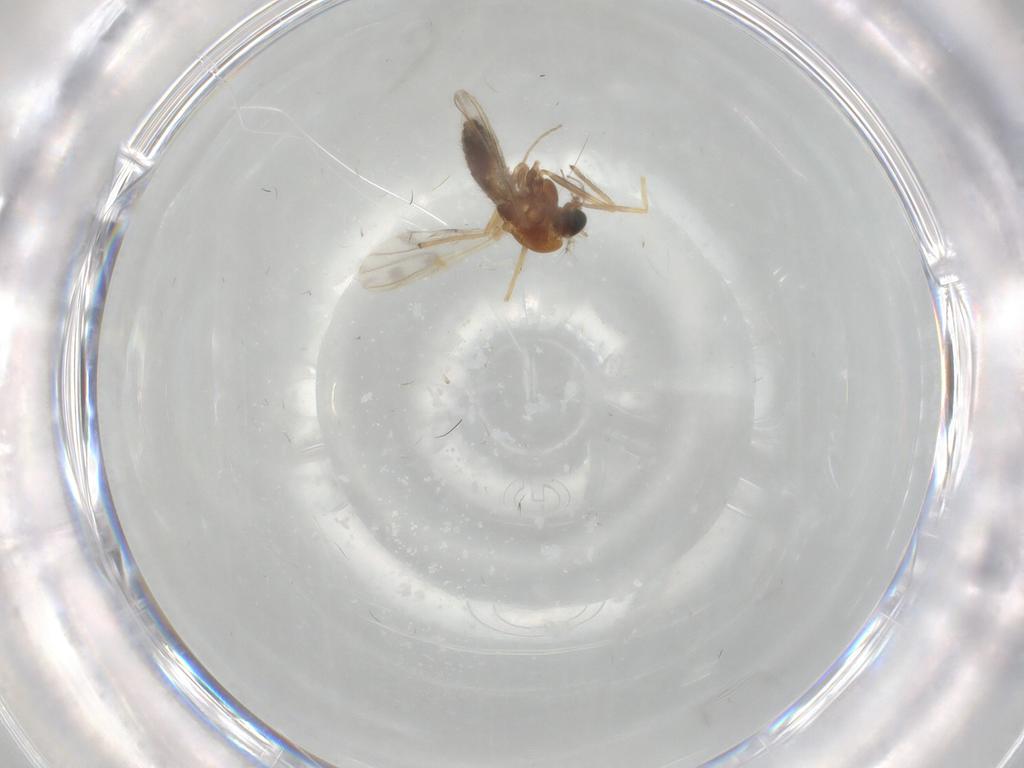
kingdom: Animalia
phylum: Arthropoda
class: Insecta
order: Diptera
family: Chironomidae
